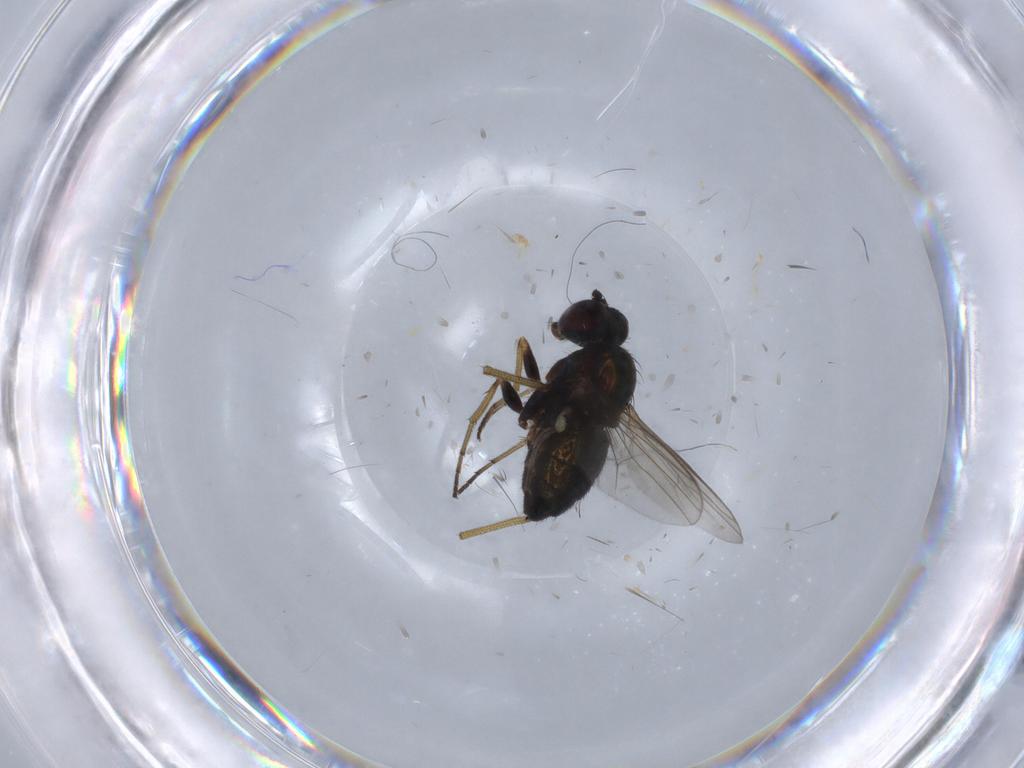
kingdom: Animalia
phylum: Arthropoda
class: Insecta
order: Diptera
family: Dolichopodidae
